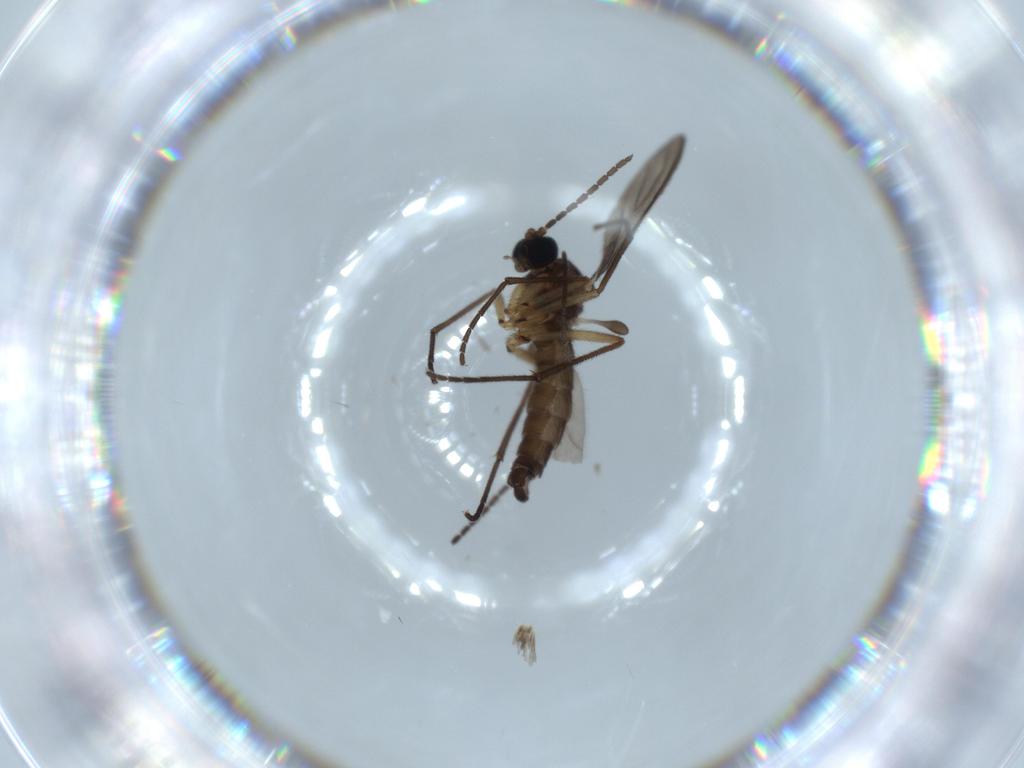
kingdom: Animalia
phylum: Arthropoda
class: Insecta
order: Diptera
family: Sciaridae
